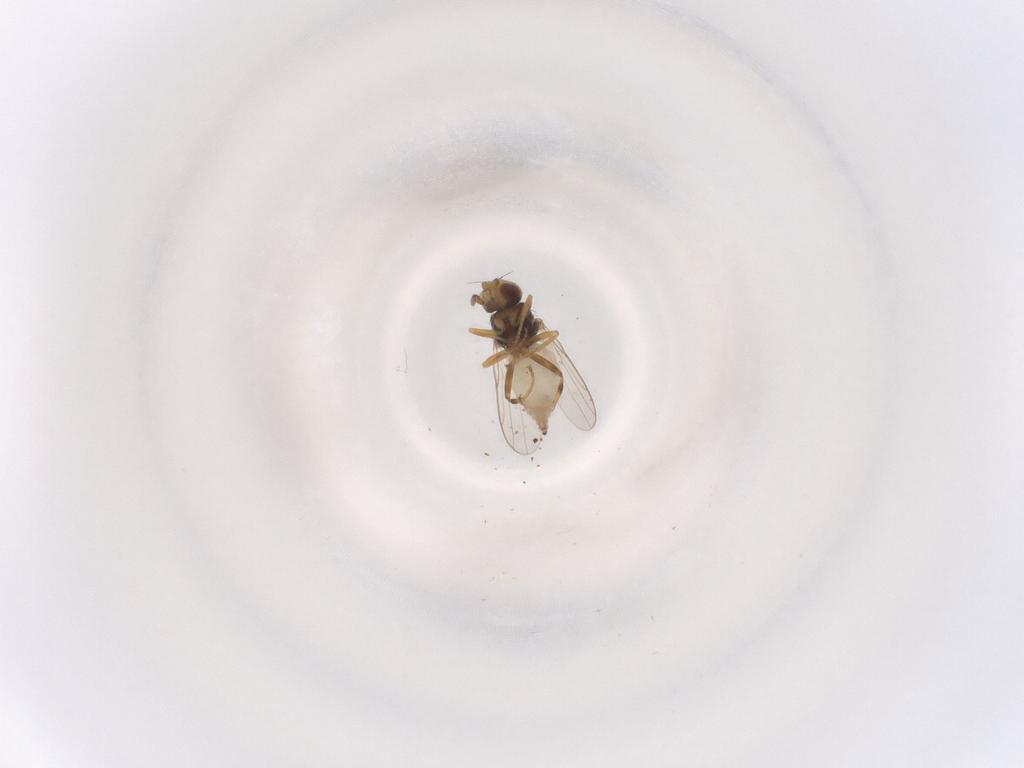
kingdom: Animalia
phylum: Arthropoda
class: Insecta
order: Diptera
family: Chloropidae
